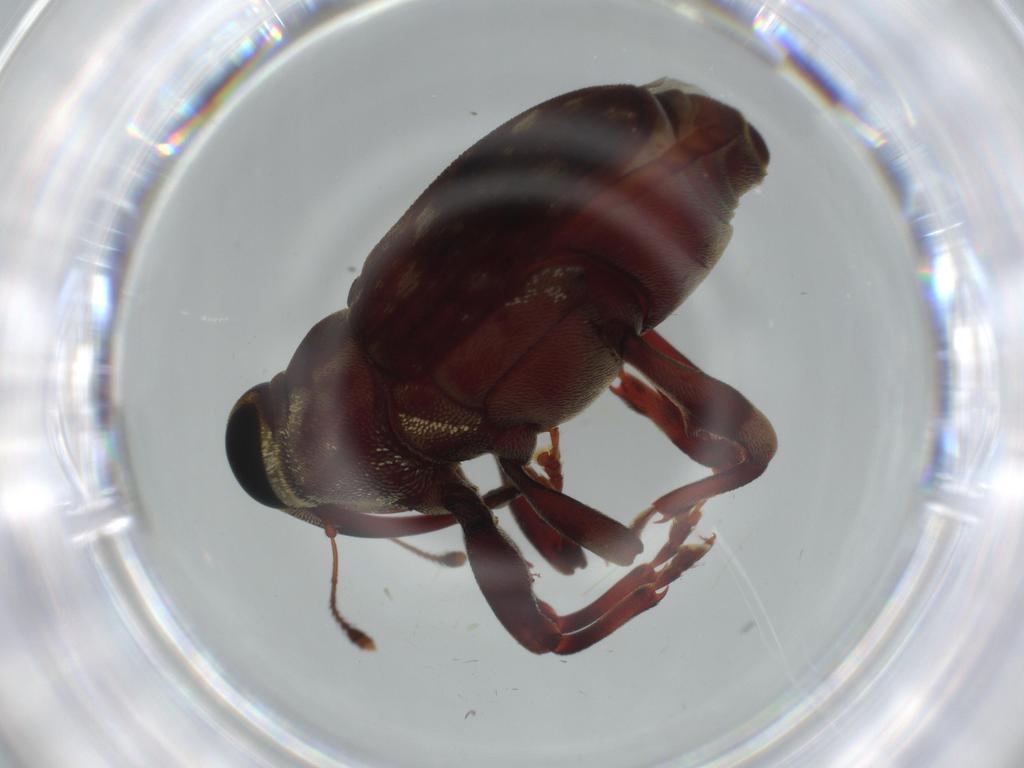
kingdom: Animalia
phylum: Arthropoda
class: Insecta
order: Coleoptera
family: Curculionidae
